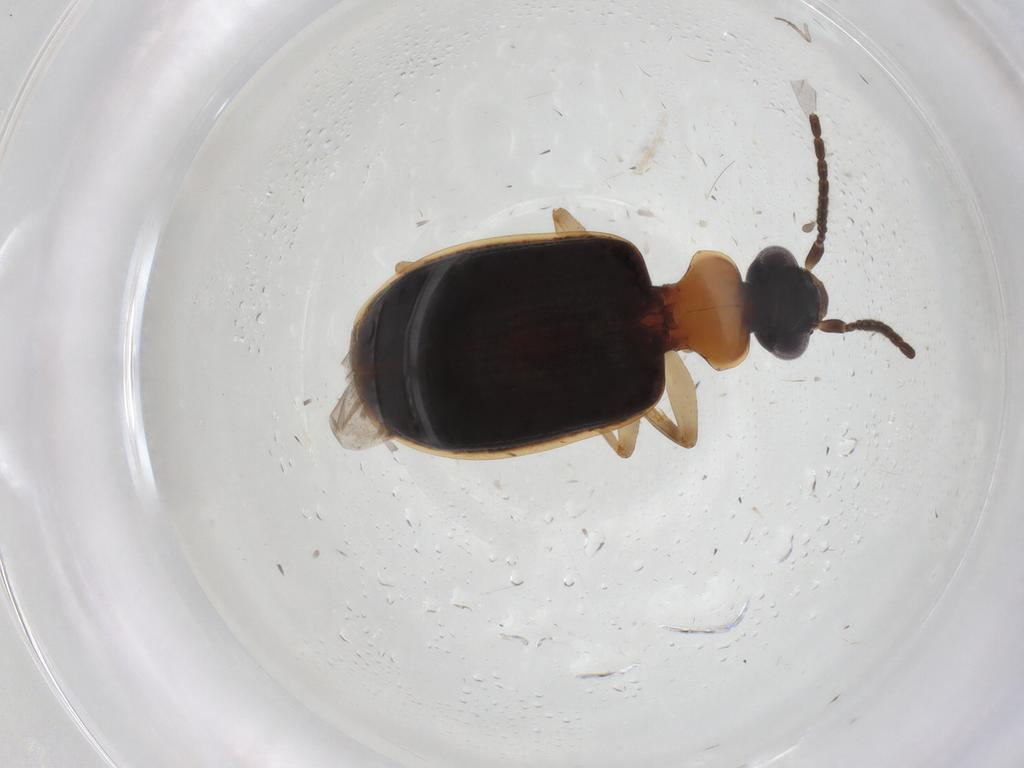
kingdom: Animalia
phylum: Arthropoda
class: Insecta
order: Coleoptera
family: Carabidae
